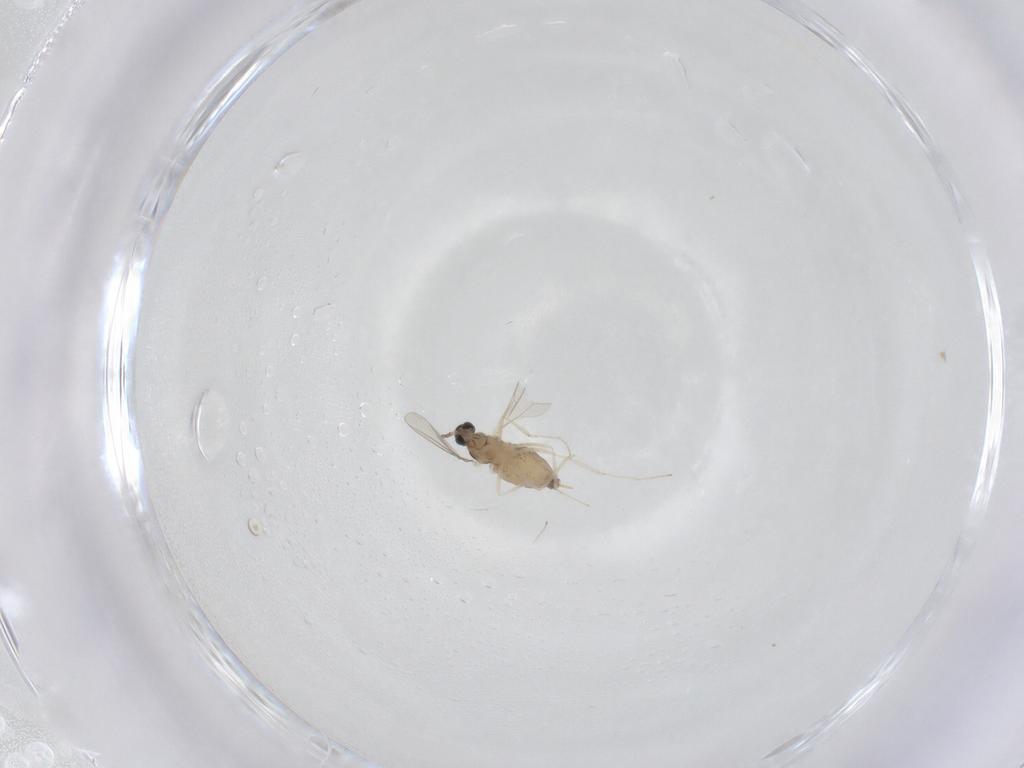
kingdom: Animalia
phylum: Arthropoda
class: Insecta
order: Diptera
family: Cecidomyiidae
